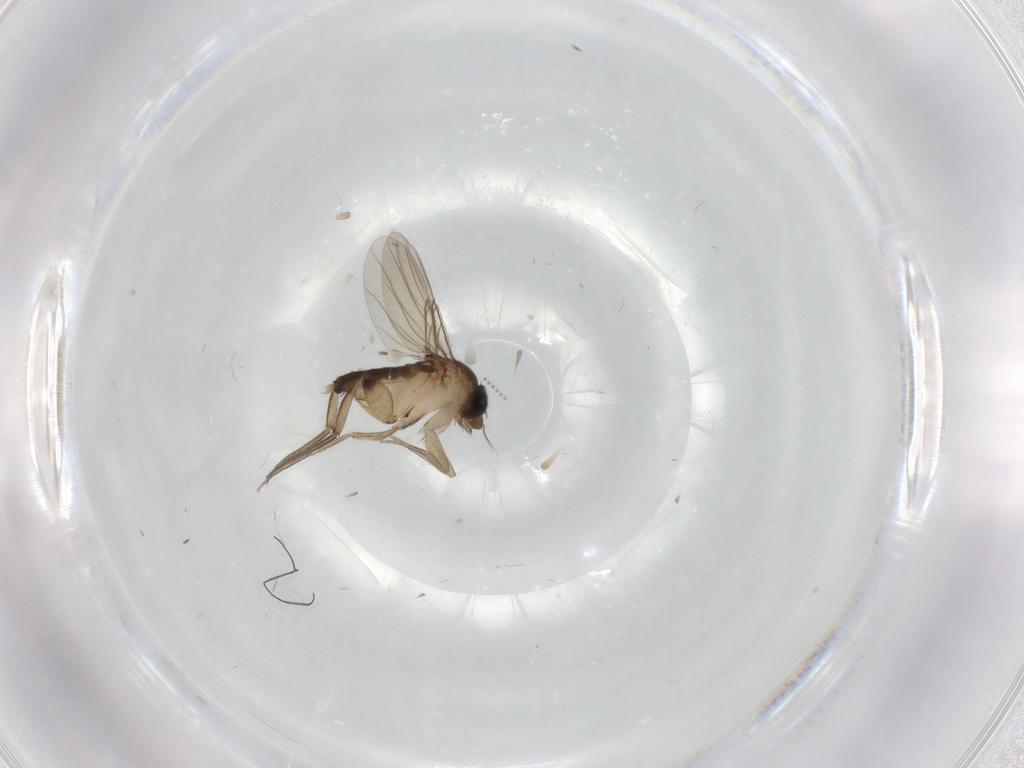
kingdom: Animalia
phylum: Arthropoda
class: Insecta
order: Diptera
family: Phoridae
